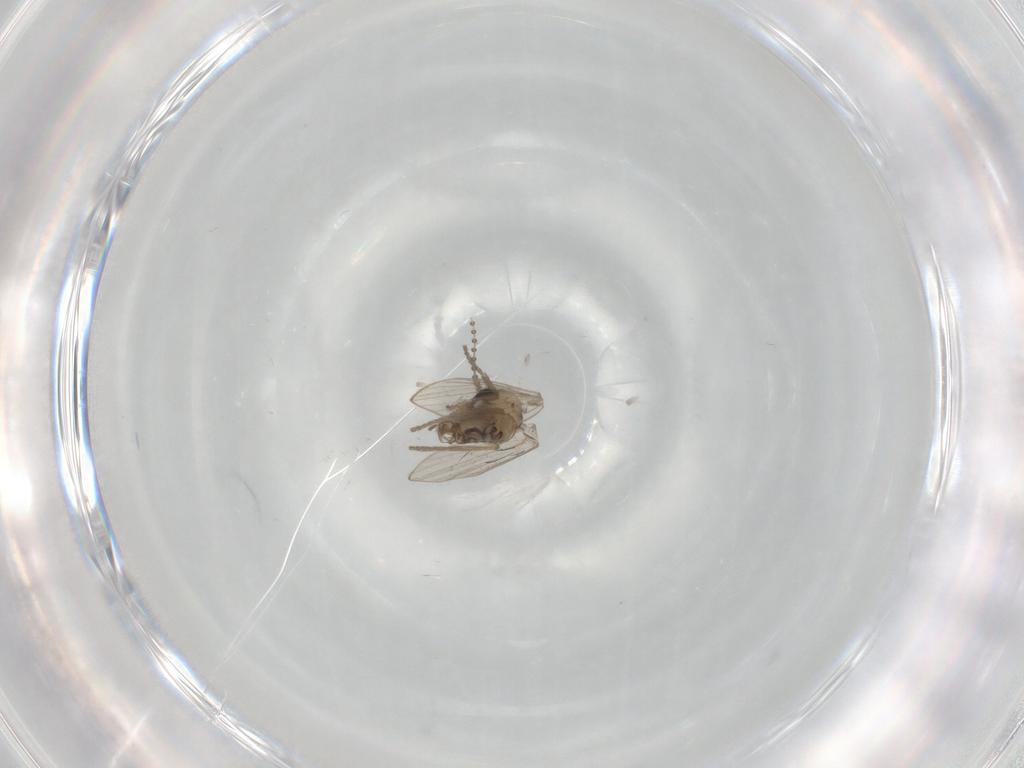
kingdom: Animalia
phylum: Arthropoda
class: Insecta
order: Diptera
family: Psychodidae
